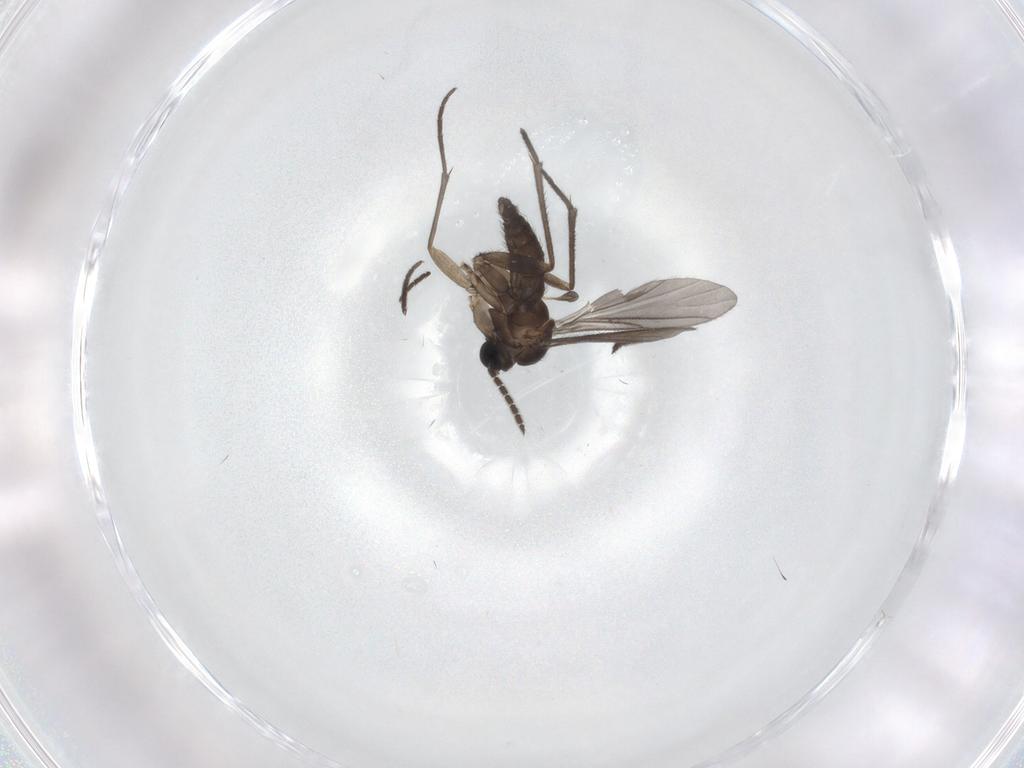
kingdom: Animalia
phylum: Arthropoda
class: Insecta
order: Diptera
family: Sciaridae
